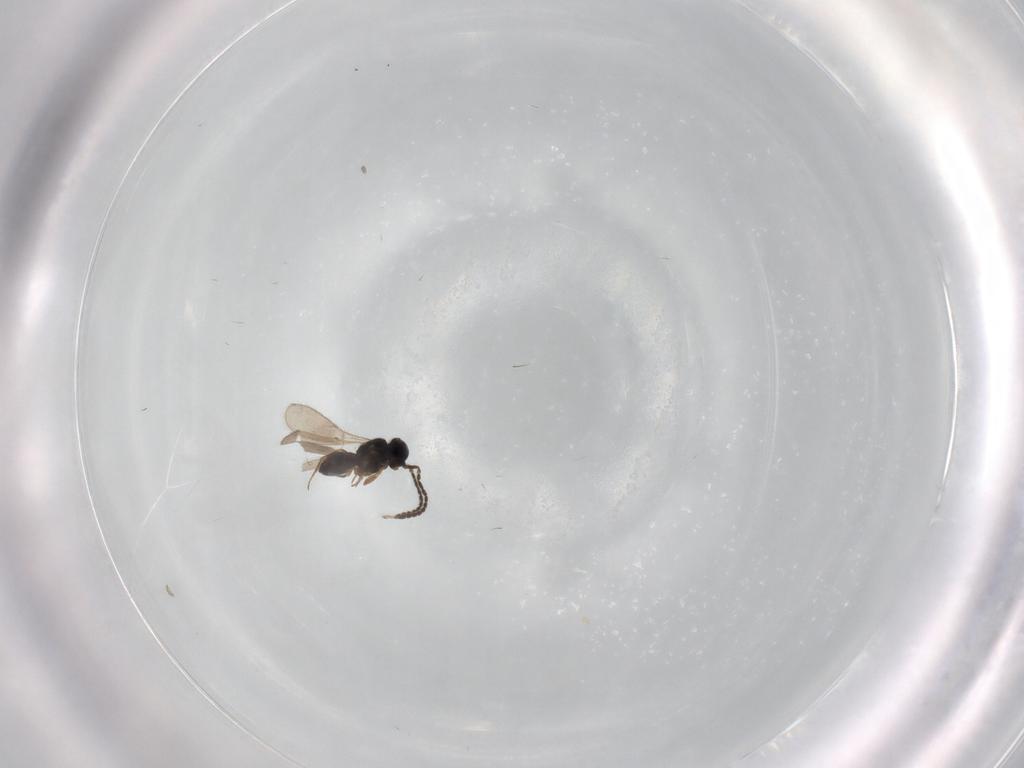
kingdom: Animalia
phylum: Arthropoda
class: Insecta
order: Hymenoptera
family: Scelionidae
